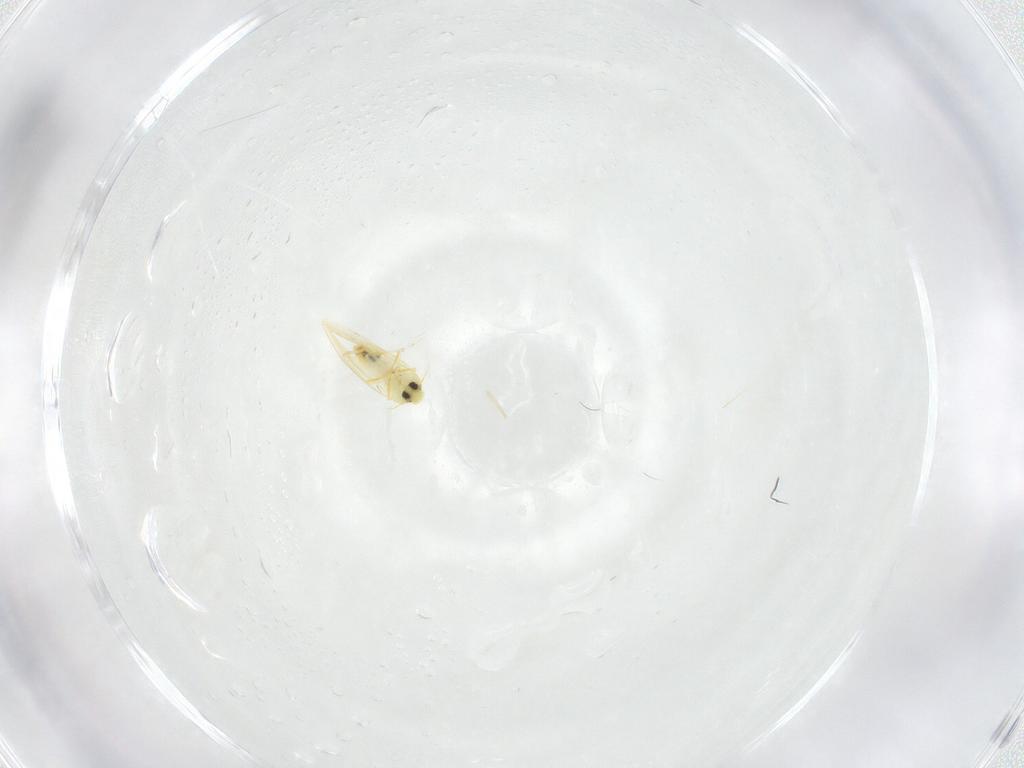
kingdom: Animalia
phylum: Arthropoda
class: Insecta
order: Hemiptera
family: Aleyrodidae
